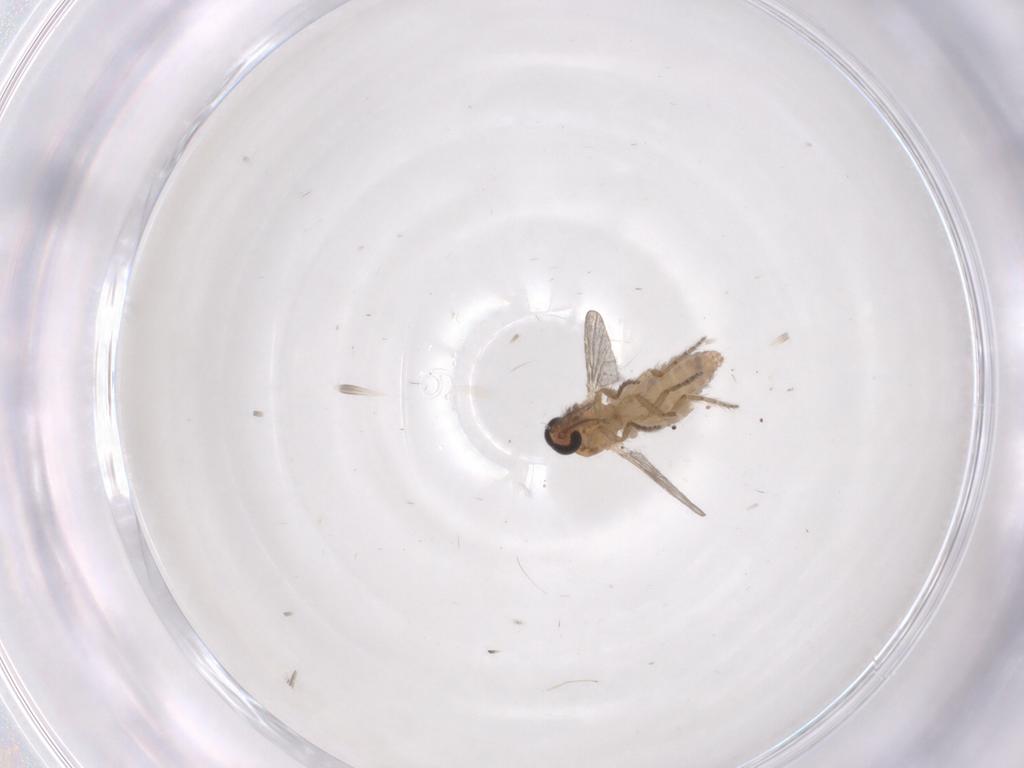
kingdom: Animalia
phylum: Arthropoda
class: Insecta
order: Diptera
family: Ceratopogonidae
